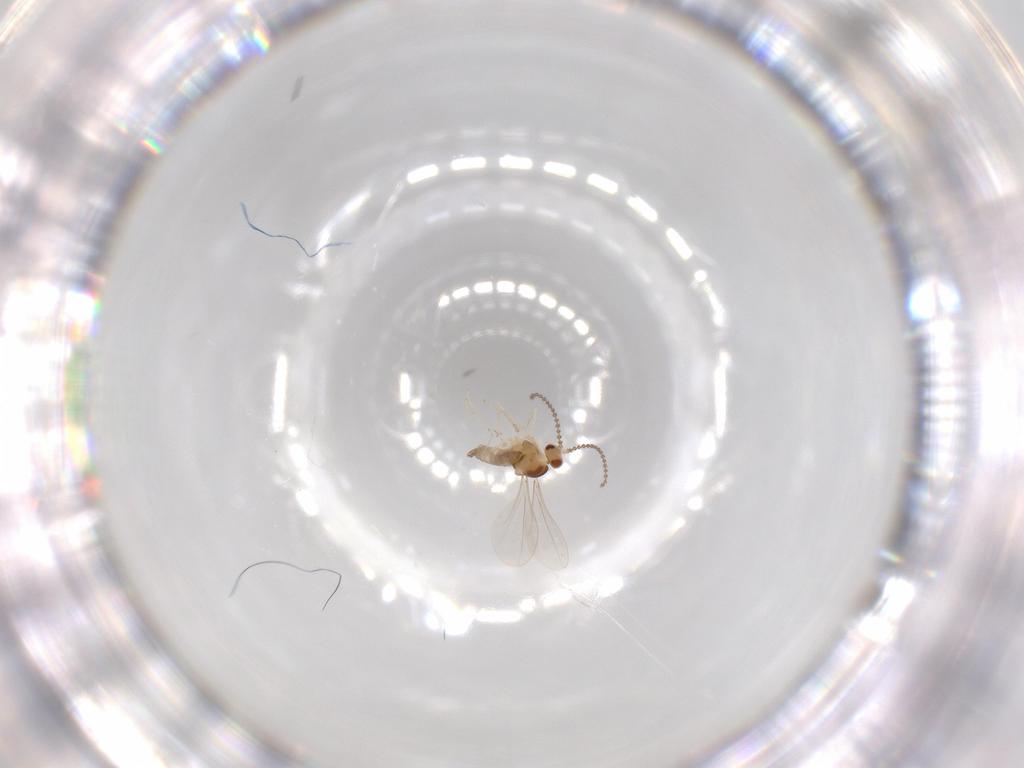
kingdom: Animalia
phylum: Arthropoda
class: Insecta
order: Diptera
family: Cecidomyiidae
